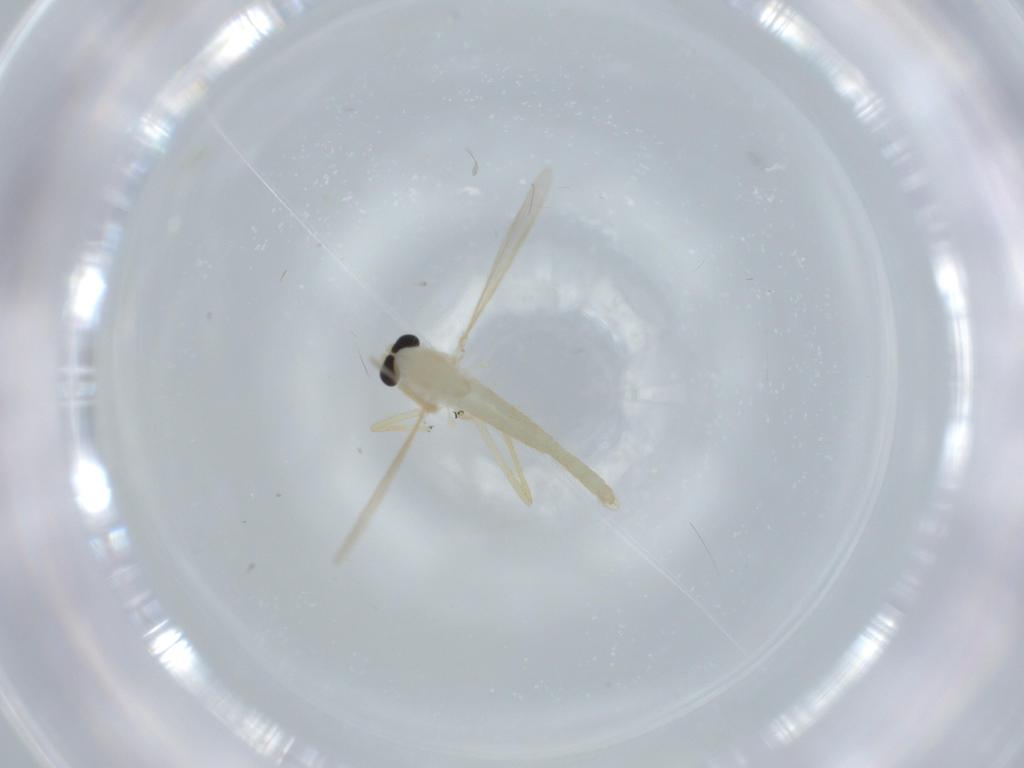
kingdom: Animalia
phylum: Arthropoda
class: Insecta
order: Diptera
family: Chironomidae
